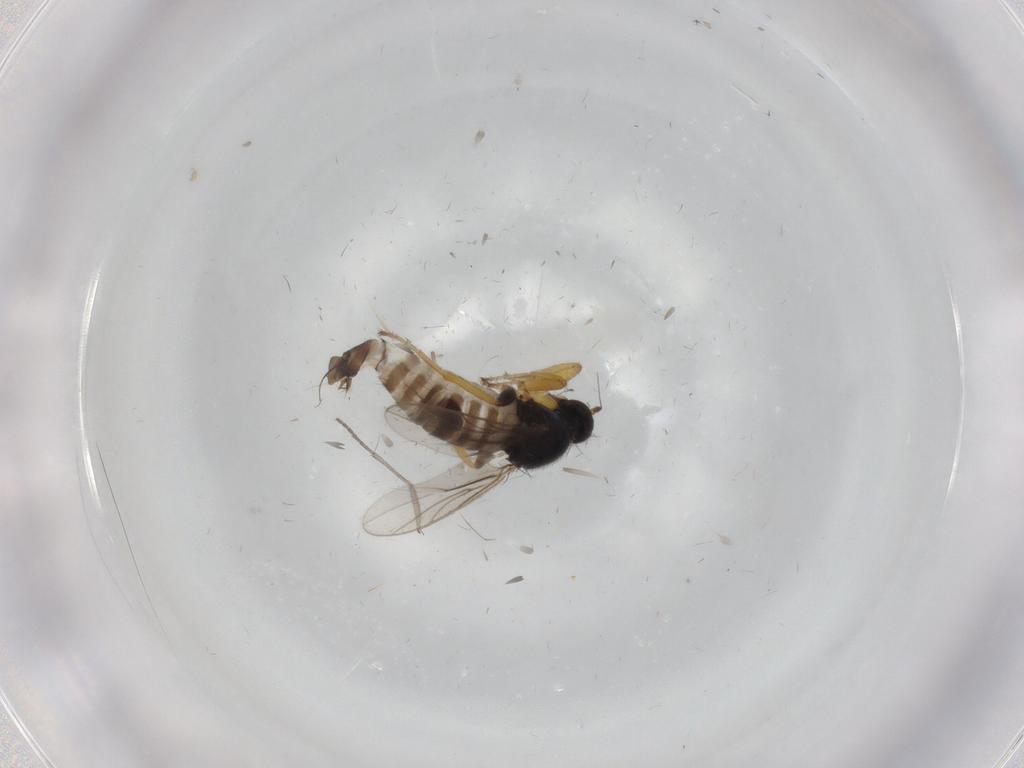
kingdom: Animalia
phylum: Arthropoda
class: Insecta
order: Diptera
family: Hybotidae
